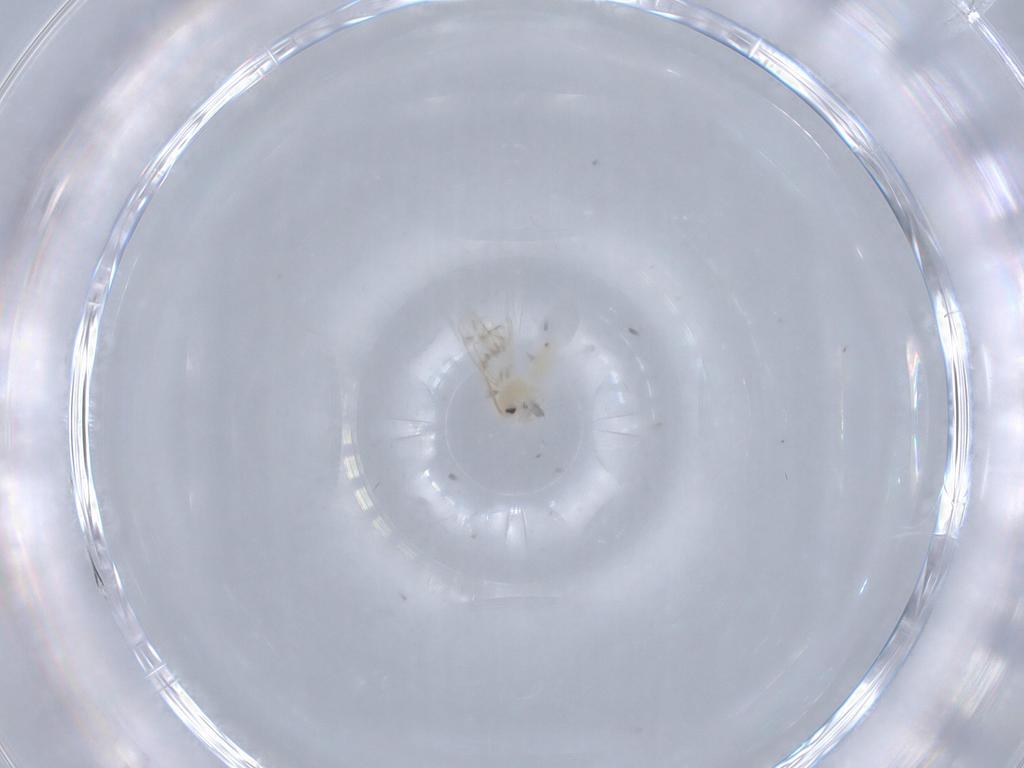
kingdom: Animalia
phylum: Arthropoda
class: Insecta
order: Hemiptera
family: Aleyrodidae
